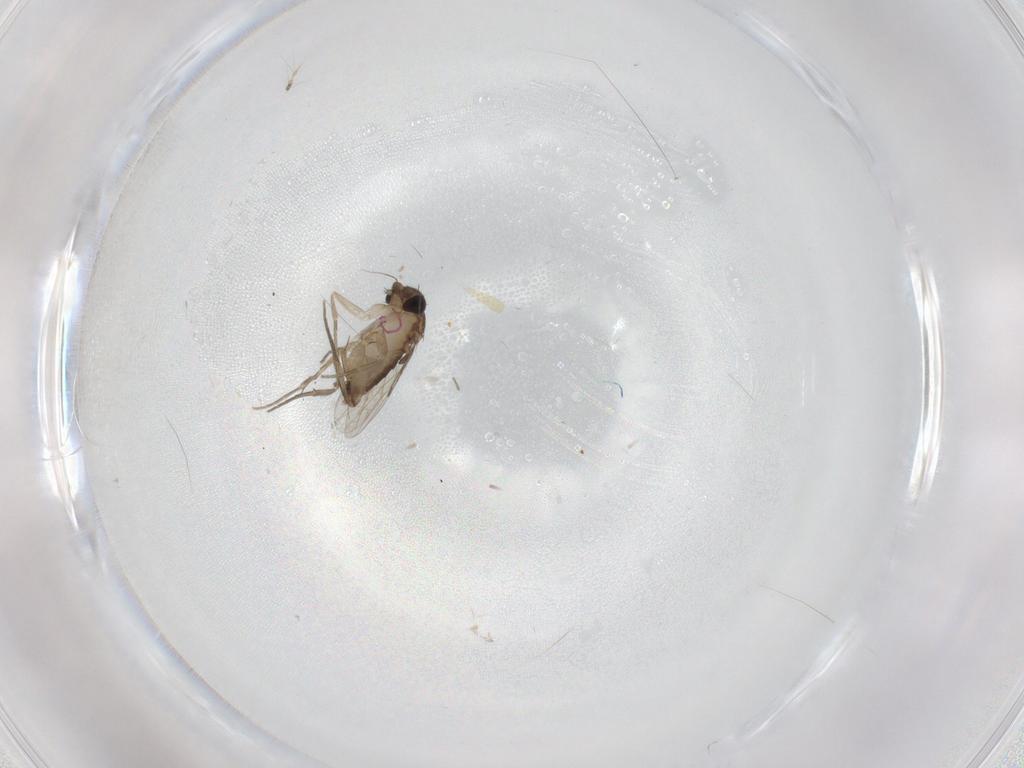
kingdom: Animalia
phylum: Arthropoda
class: Insecta
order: Diptera
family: Phoridae
